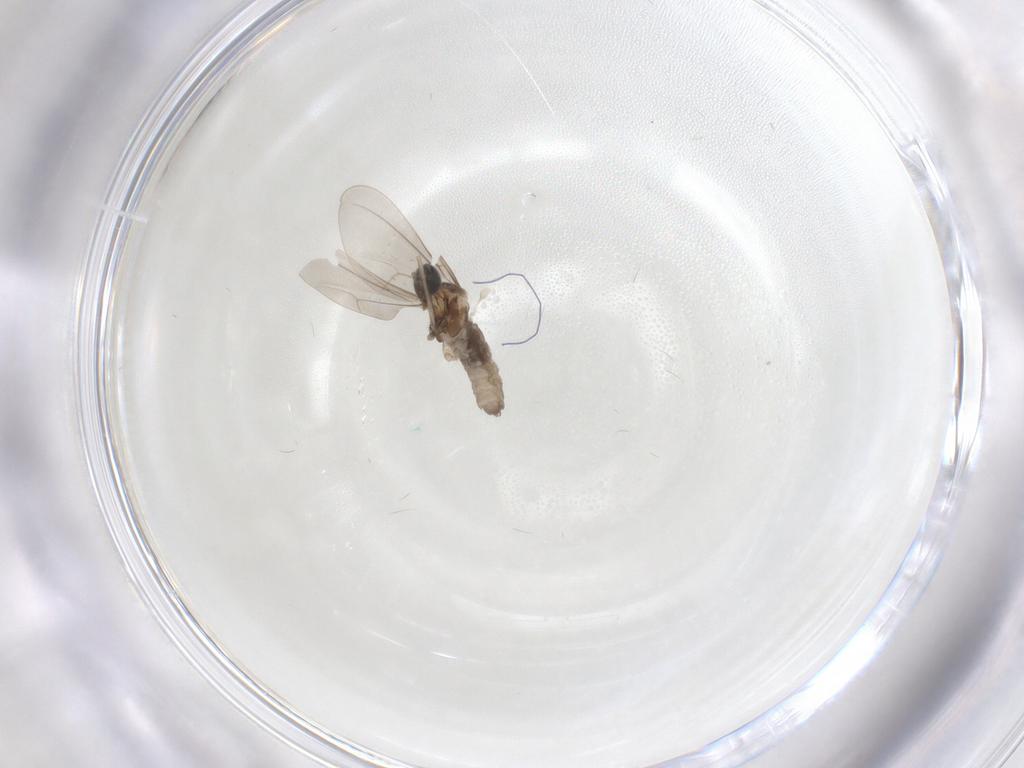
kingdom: Animalia
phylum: Arthropoda
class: Insecta
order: Diptera
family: Cecidomyiidae
